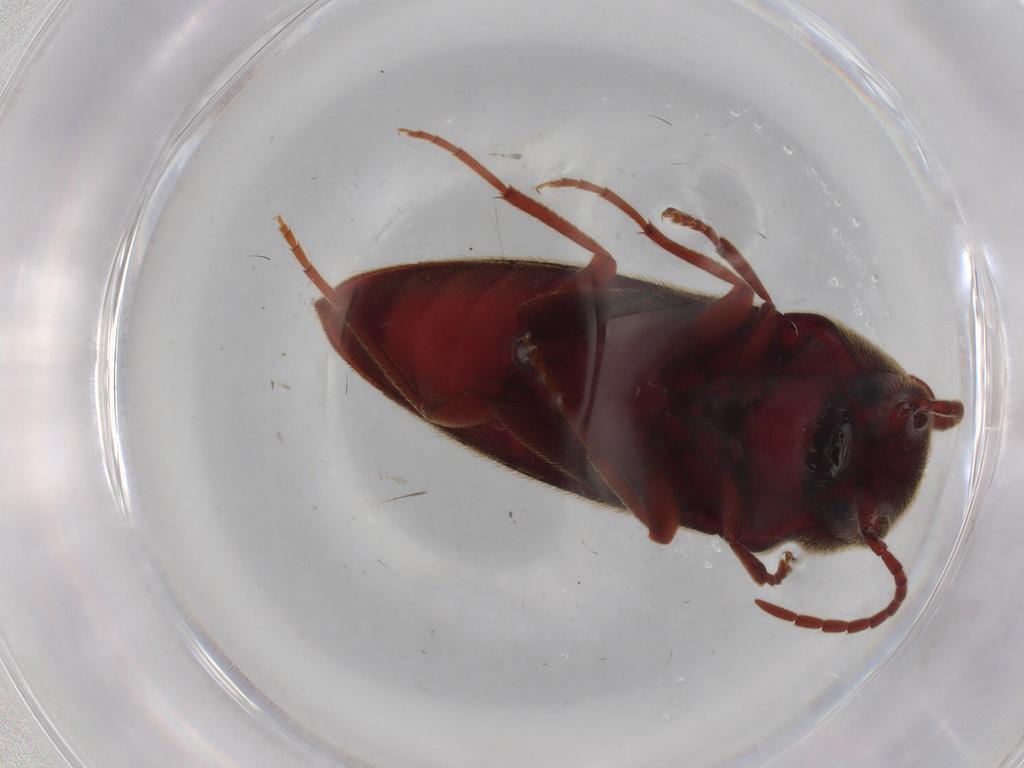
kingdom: Animalia
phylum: Arthropoda
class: Insecta
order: Coleoptera
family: Eucnemidae
